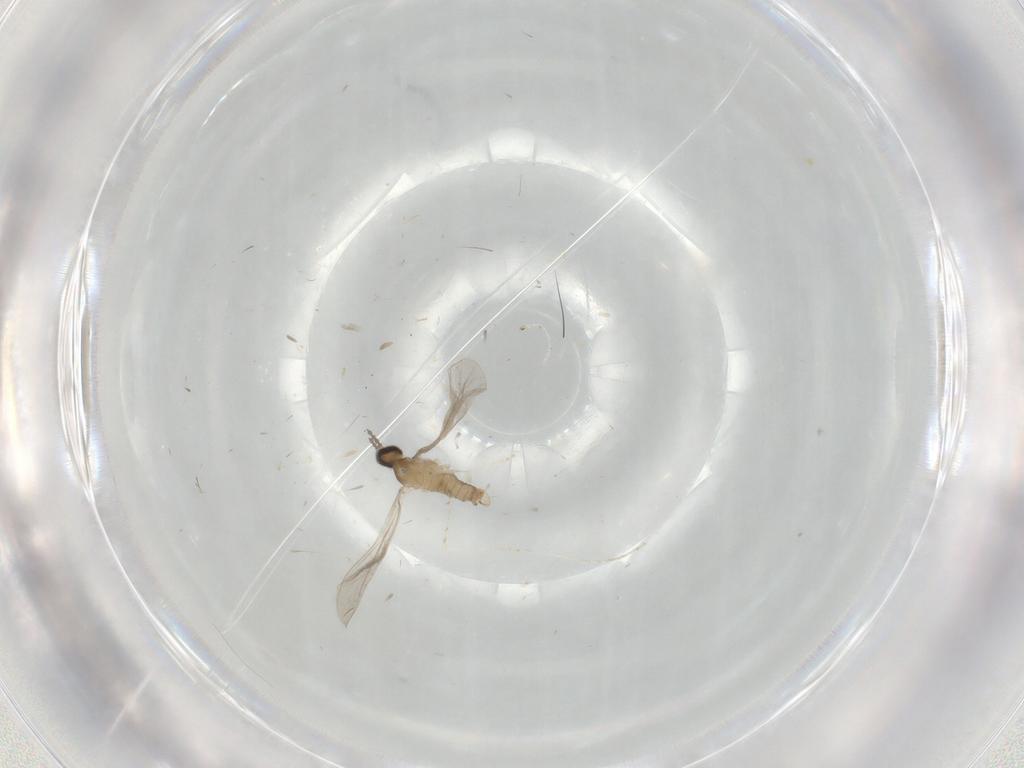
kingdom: Animalia
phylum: Arthropoda
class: Insecta
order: Diptera
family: Cecidomyiidae
